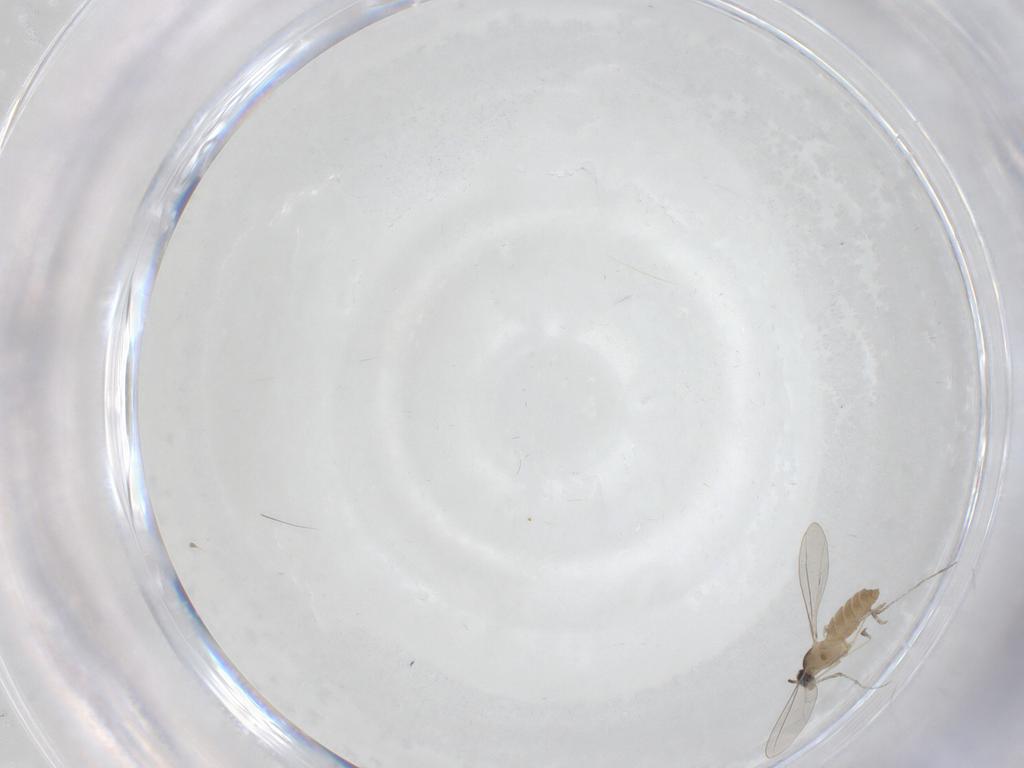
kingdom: Animalia
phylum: Arthropoda
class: Insecta
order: Diptera
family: Cecidomyiidae
